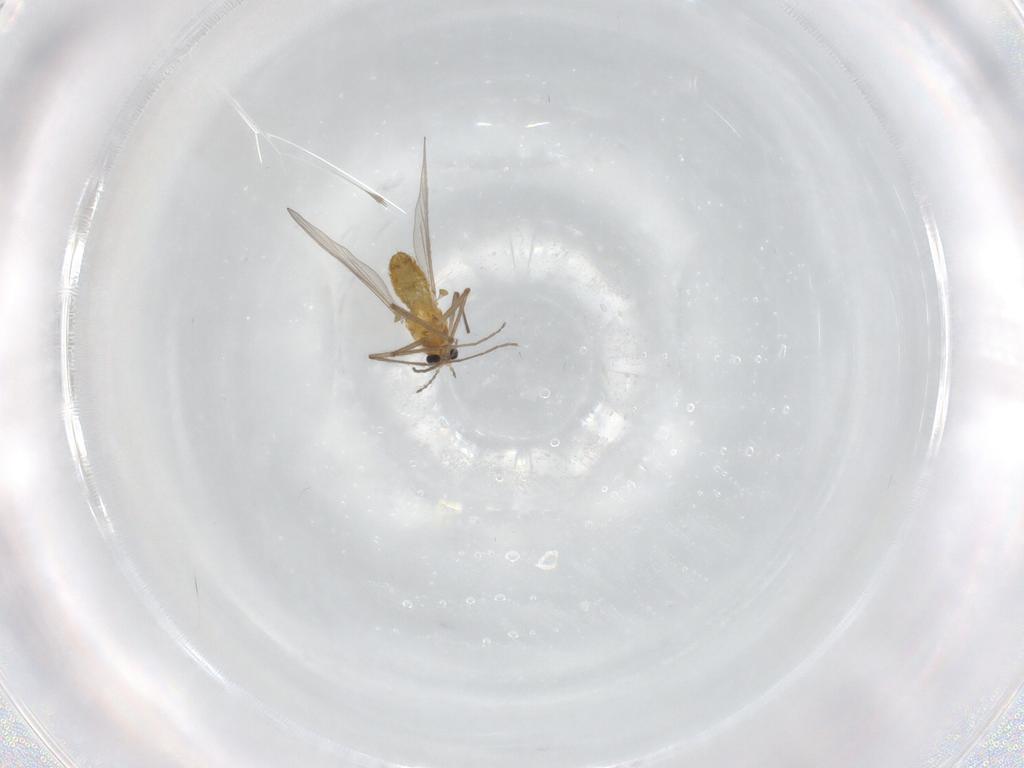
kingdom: Animalia
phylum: Arthropoda
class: Insecta
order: Diptera
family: Chironomidae
